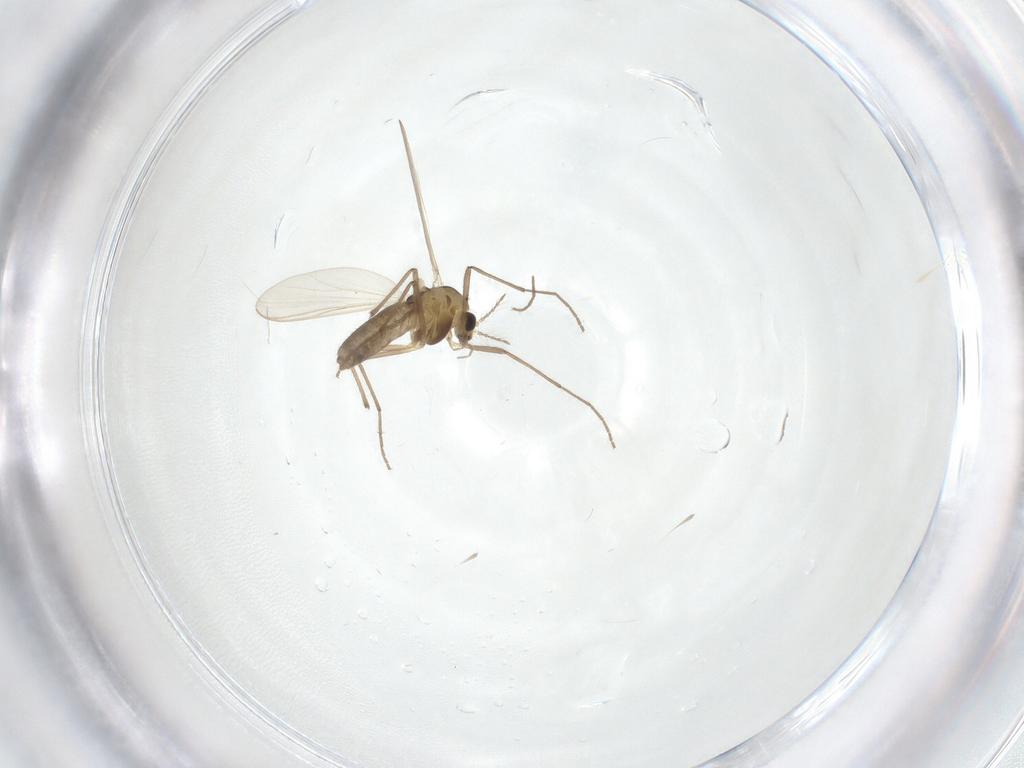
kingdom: Animalia
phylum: Arthropoda
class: Insecta
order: Diptera
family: Chironomidae
